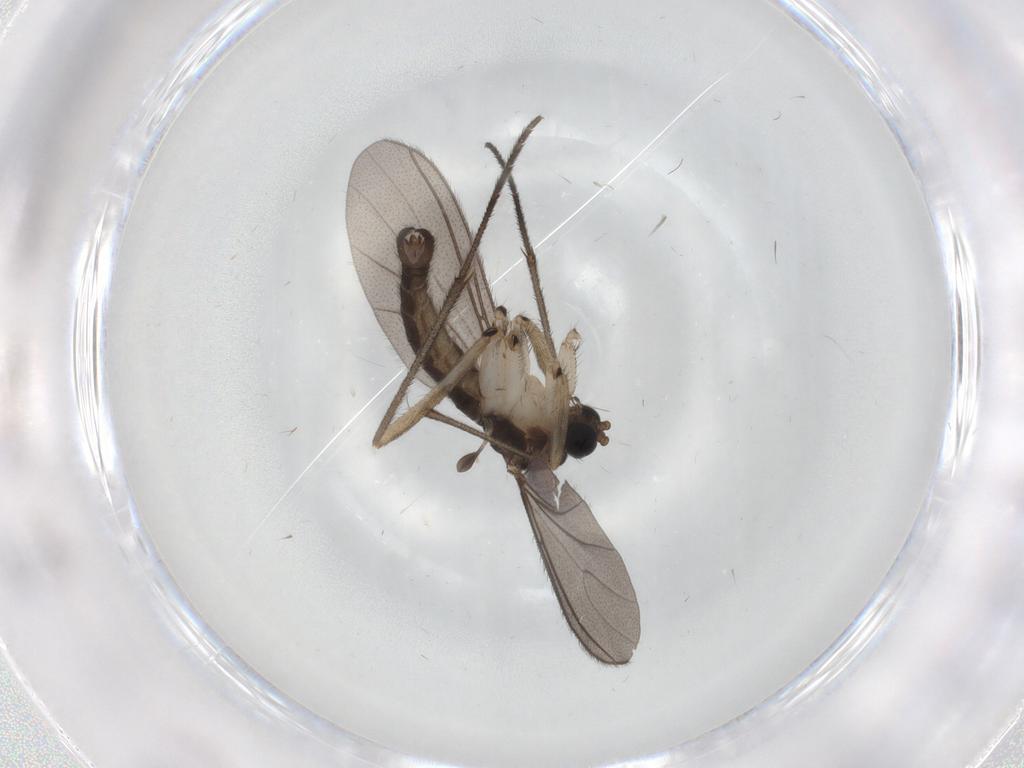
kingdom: Animalia
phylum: Arthropoda
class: Insecta
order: Diptera
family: Sciaridae
